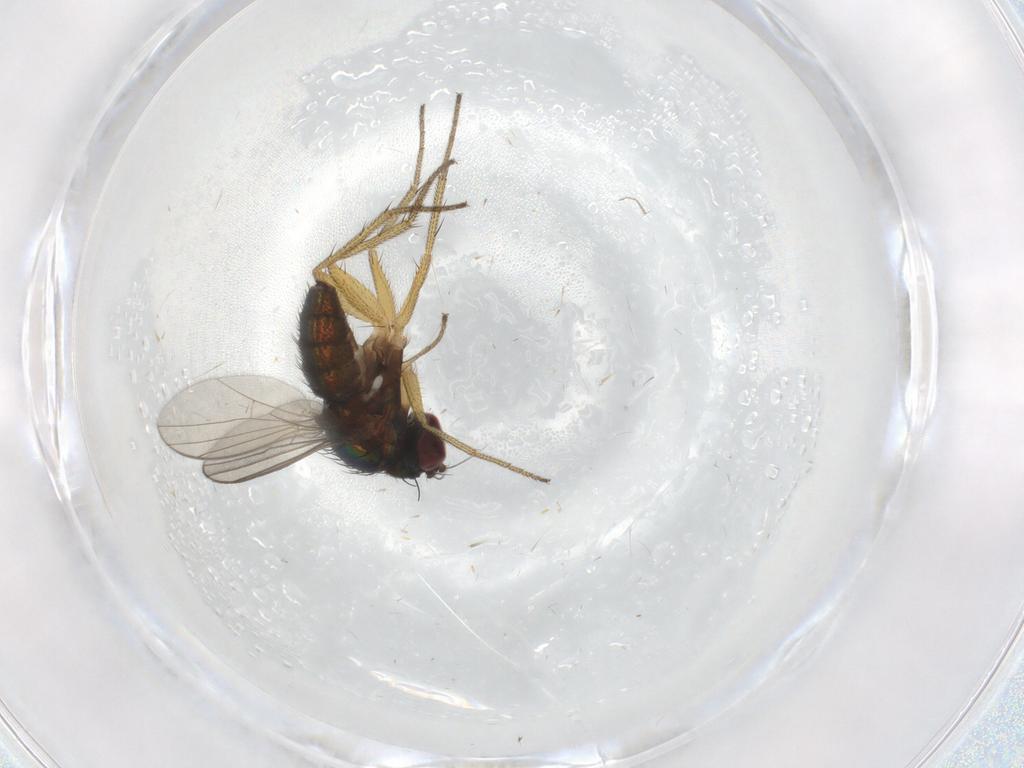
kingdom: Animalia
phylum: Arthropoda
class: Insecta
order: Diptera
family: Dolichopodidae
